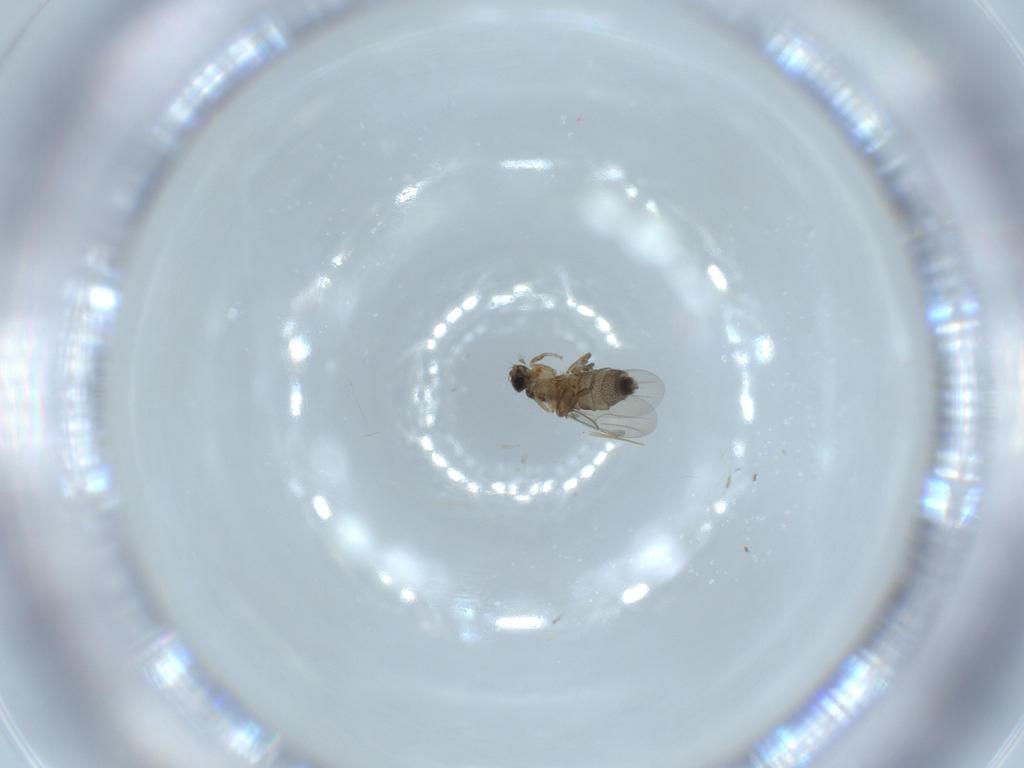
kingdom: Animalia
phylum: Arthropoda
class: Insecta
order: Diptera
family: Phoridae
